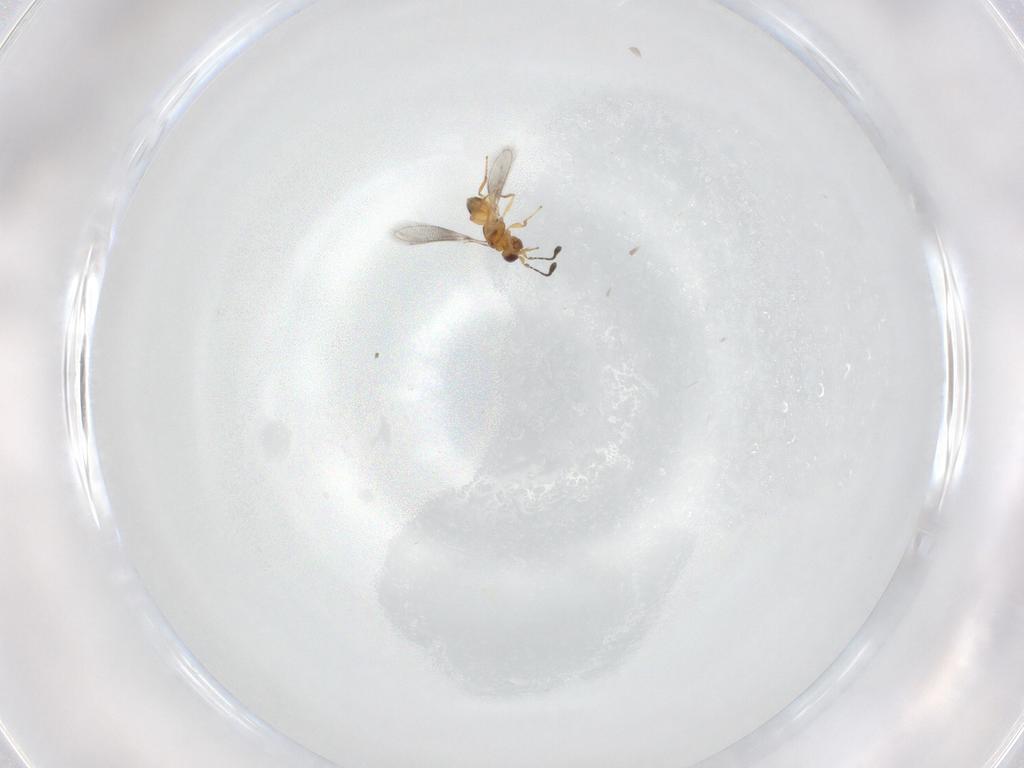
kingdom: Animalia
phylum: Arthropoda
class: Insecta
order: Hymenoptera
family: Mymaridae
